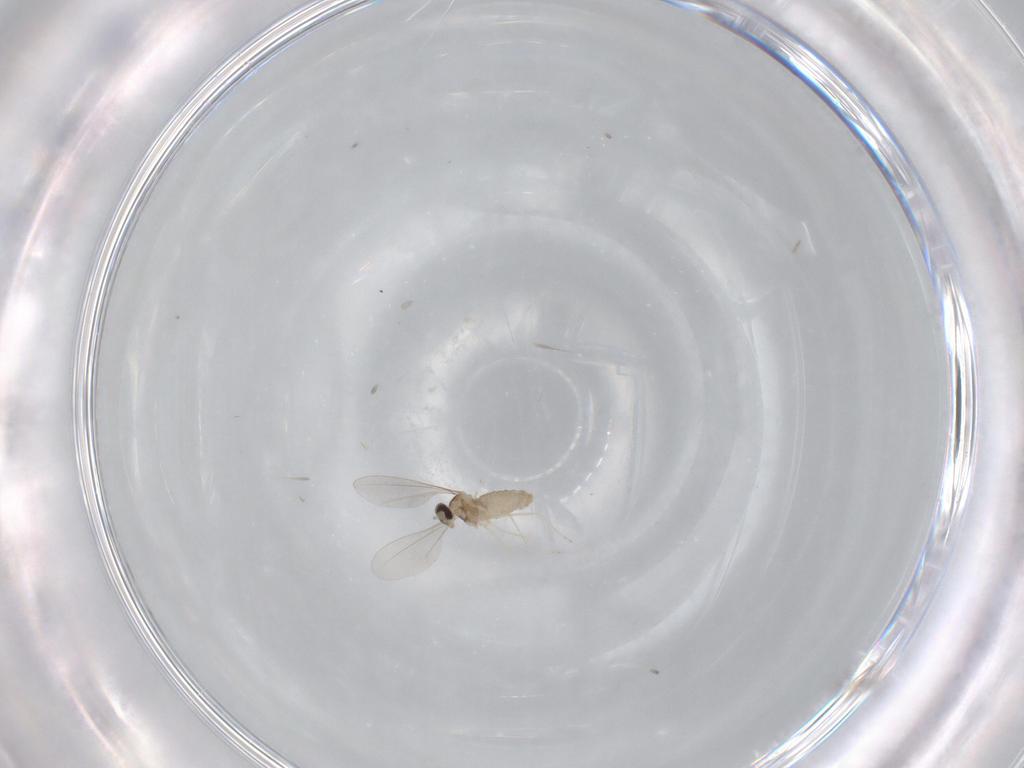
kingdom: Animalia
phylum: Arthropoda
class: Insecta
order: Diptera
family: Cecidomyiidae
